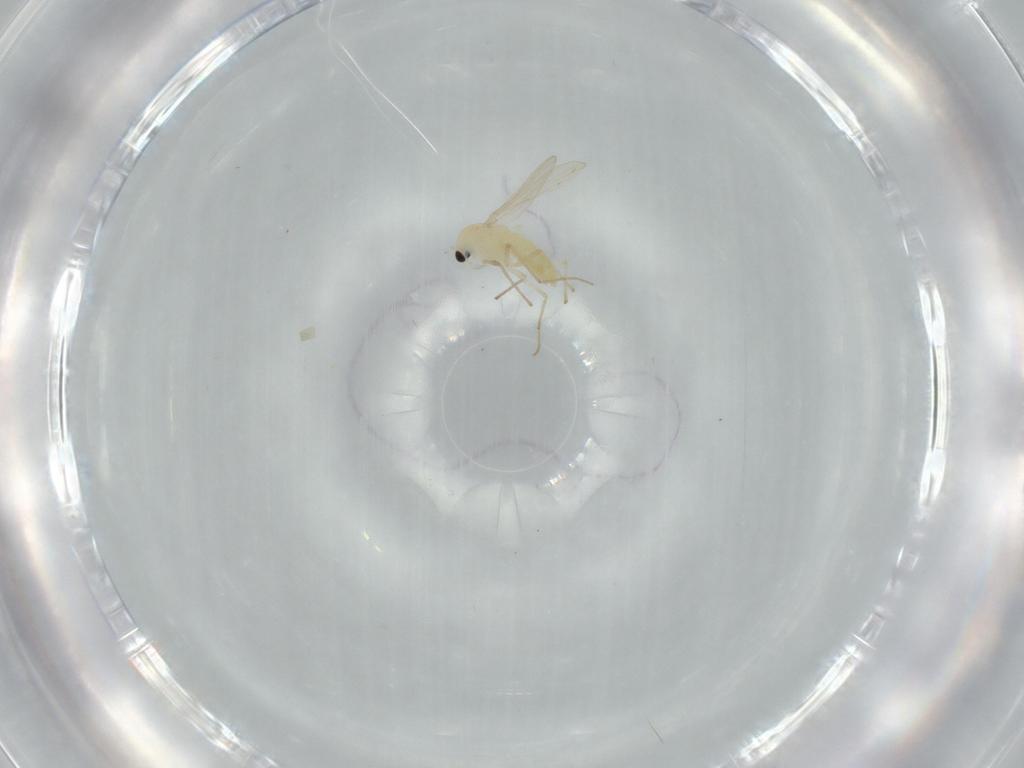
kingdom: Animalia
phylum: Arthropoda
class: Insecta
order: Diptera
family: Chironomidae
